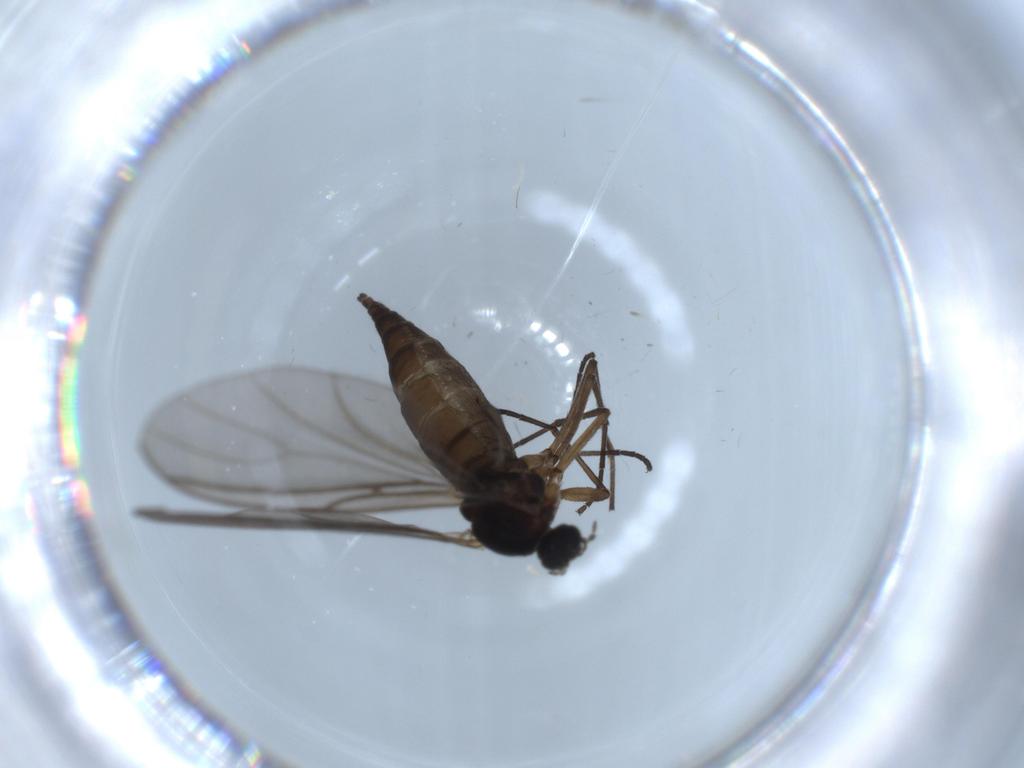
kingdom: Animalia
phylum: Arthropoda
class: Insecta
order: Diptera
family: Sciaridae
